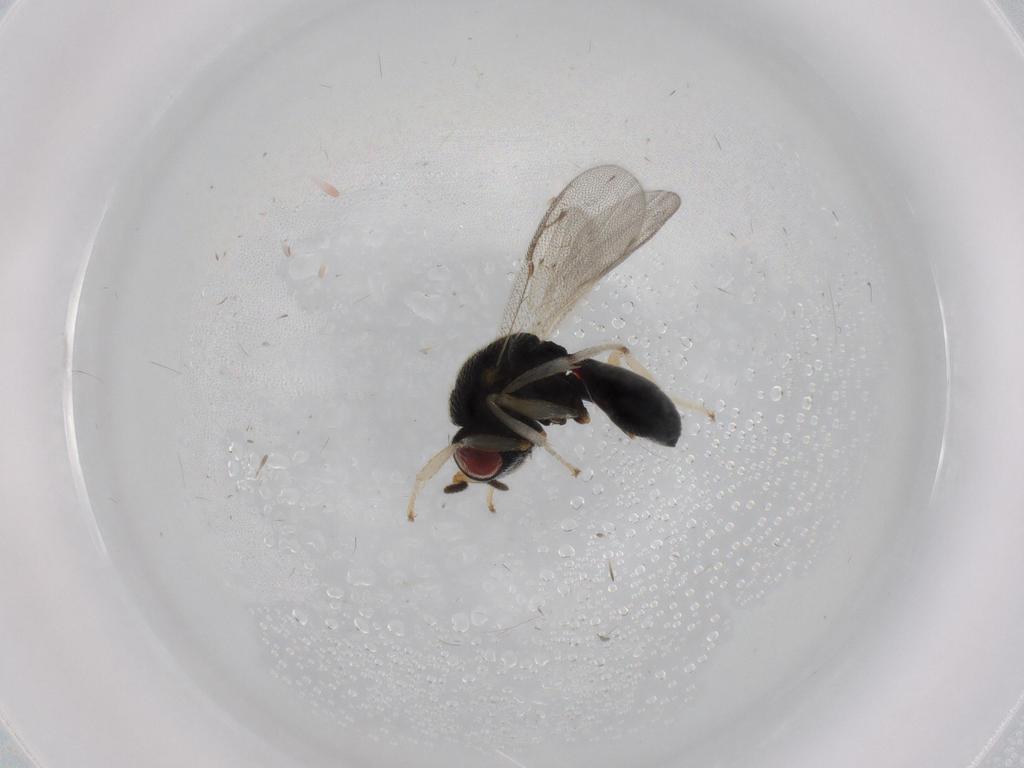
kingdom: Animalia
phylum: Arthropoda
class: Insecta
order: Hymenoptera
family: Eurytomidae
